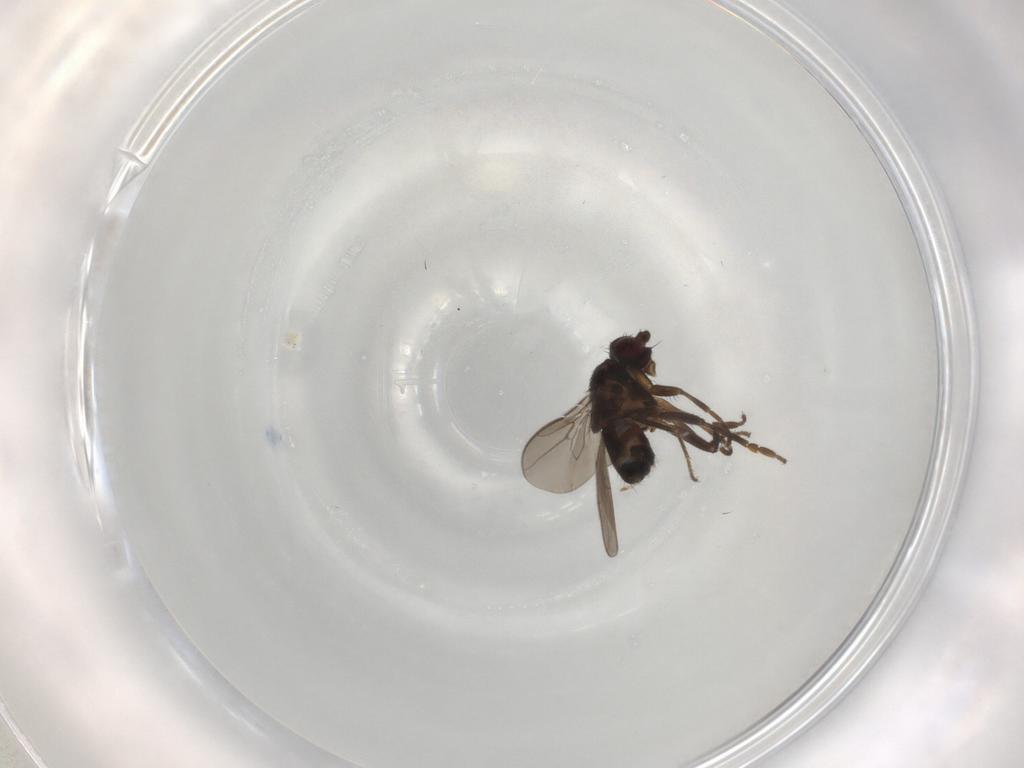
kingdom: Animalia
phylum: Arthropoda
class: Insecta
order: Diptera
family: Sphaeroceridae
